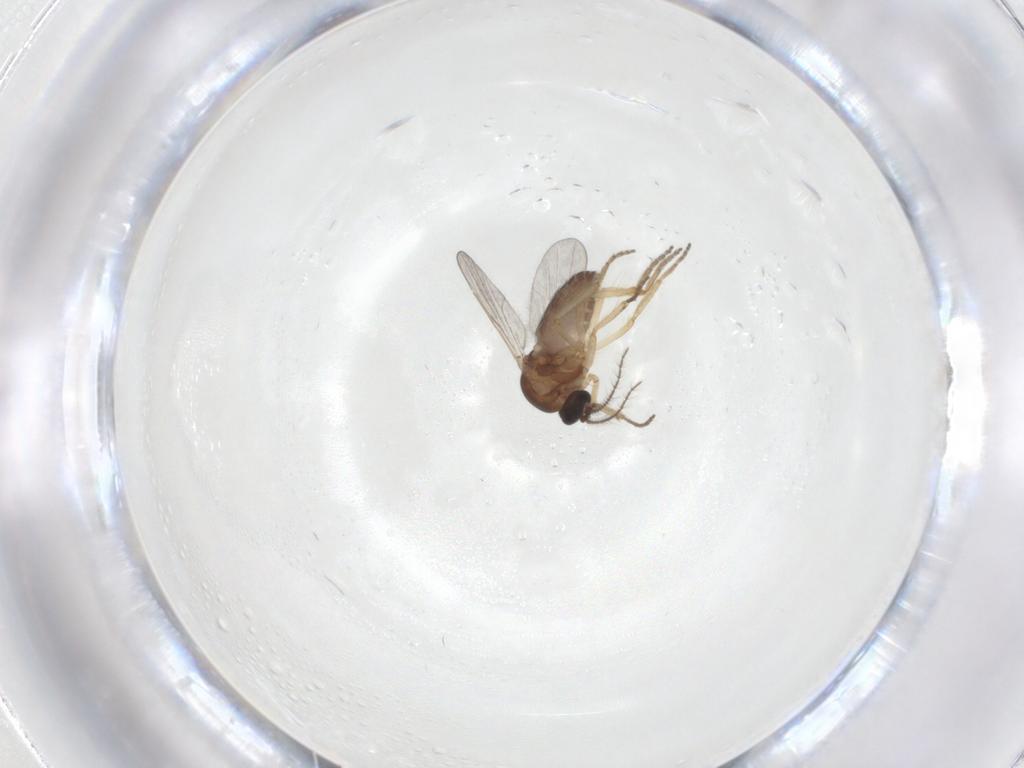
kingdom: Animalia
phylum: Arthropoda
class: Insecta
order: Diptera
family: Ceratopogonidae
